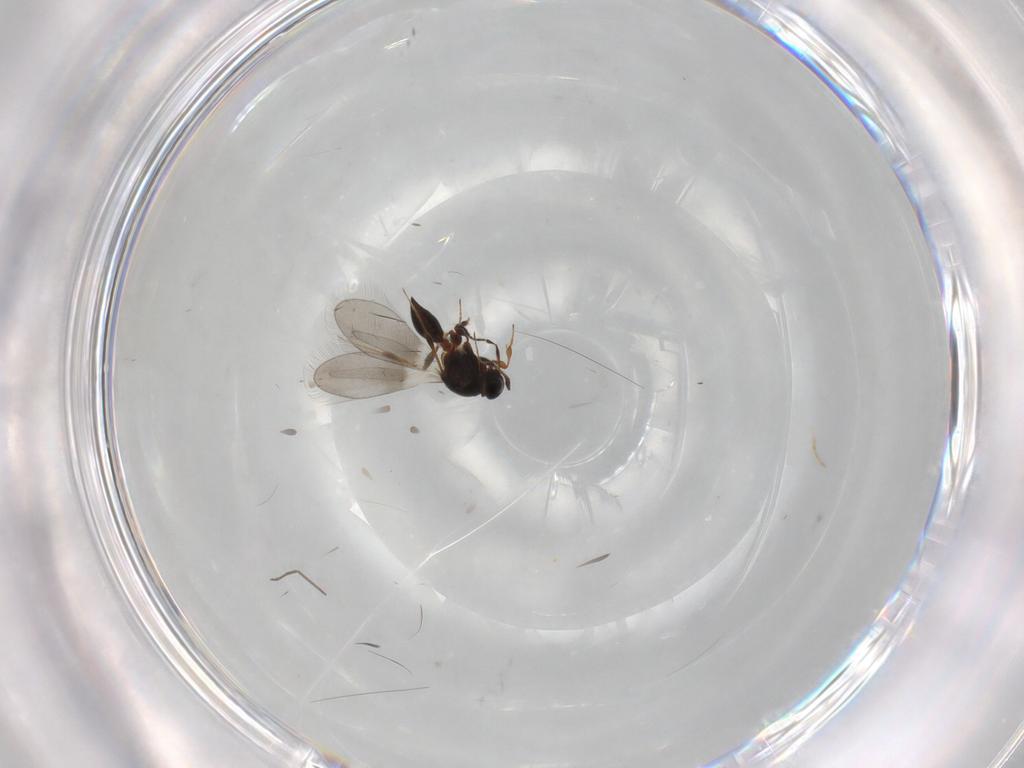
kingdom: Animalia
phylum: Arthropoda
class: Insecta
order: Hymenoptera
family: Platygastridae
